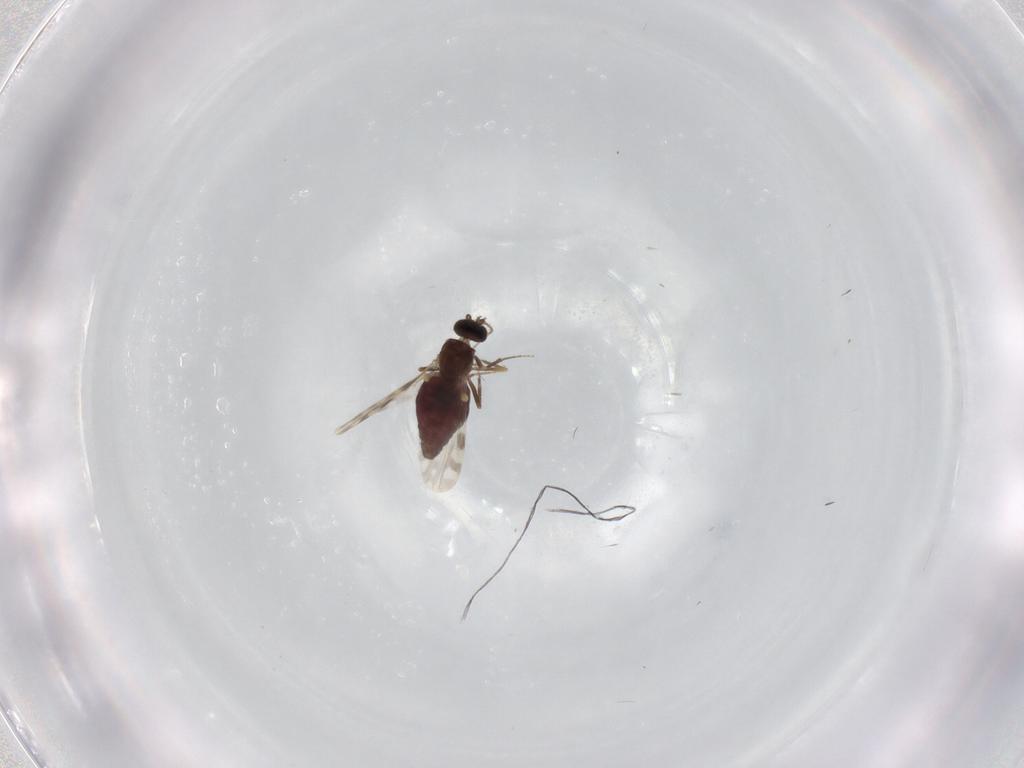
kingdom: Animalia
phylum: Arthropoda
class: Insecta
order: Diptera
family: Ceratopogonidae
